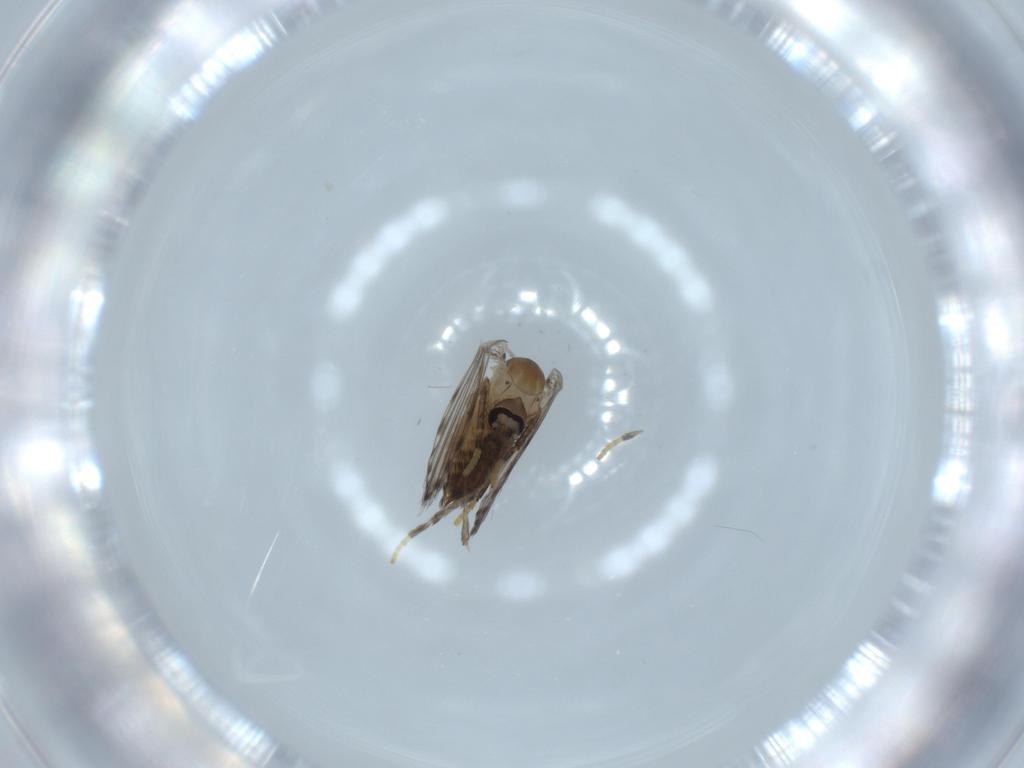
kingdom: Animalia
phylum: Arthropoda
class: Insecta
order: Diptera
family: Psychodidae
